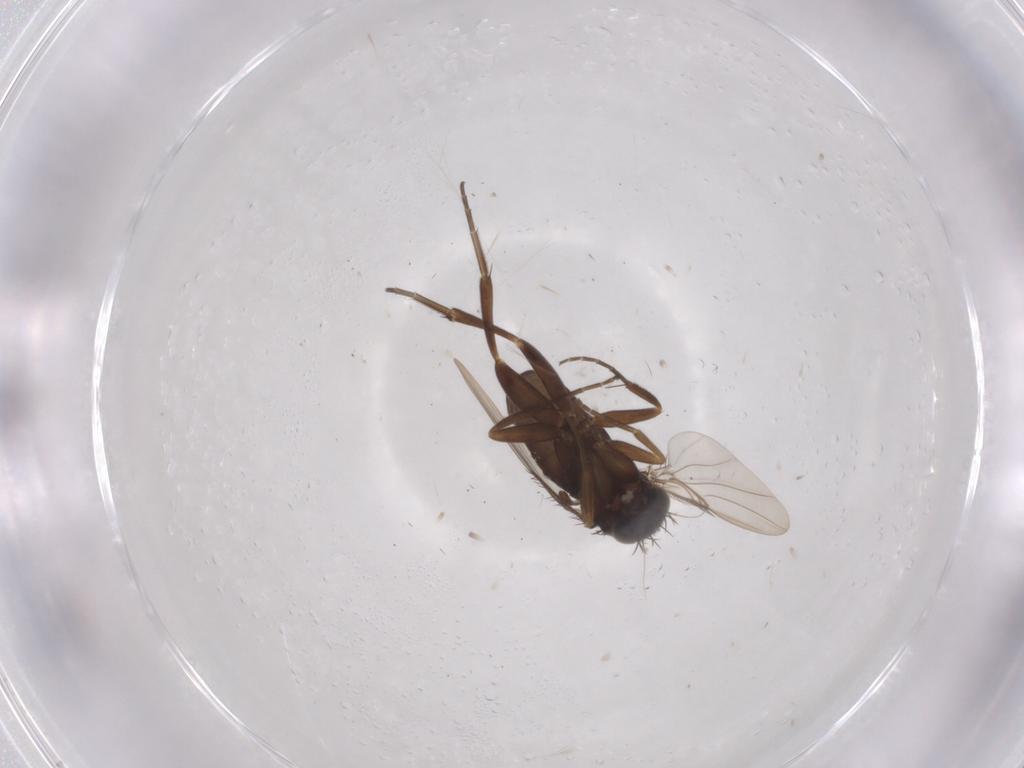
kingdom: Animalia
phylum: Arthropoda
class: Insecta
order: Diptera
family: Phoridae
